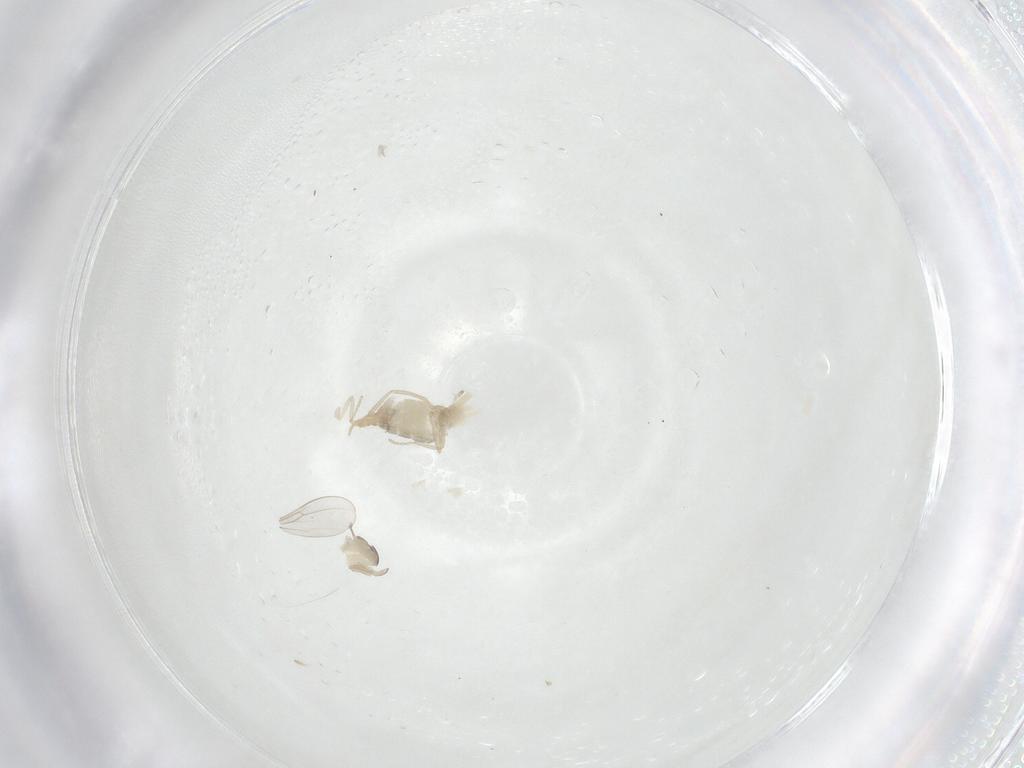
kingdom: Animalia
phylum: Arthropoda
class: Insecta
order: Diptera
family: Cecidomyiidae
